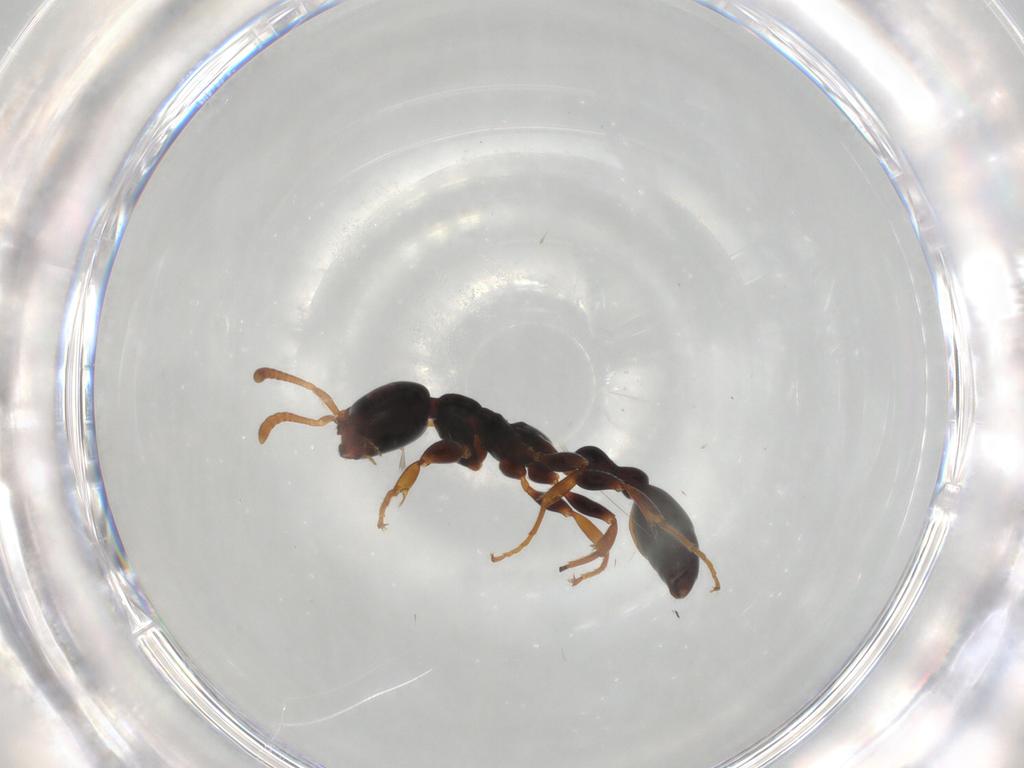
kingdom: Animalia
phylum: Arthropoda
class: Insecta
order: Hymenoptera
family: Formicidae
